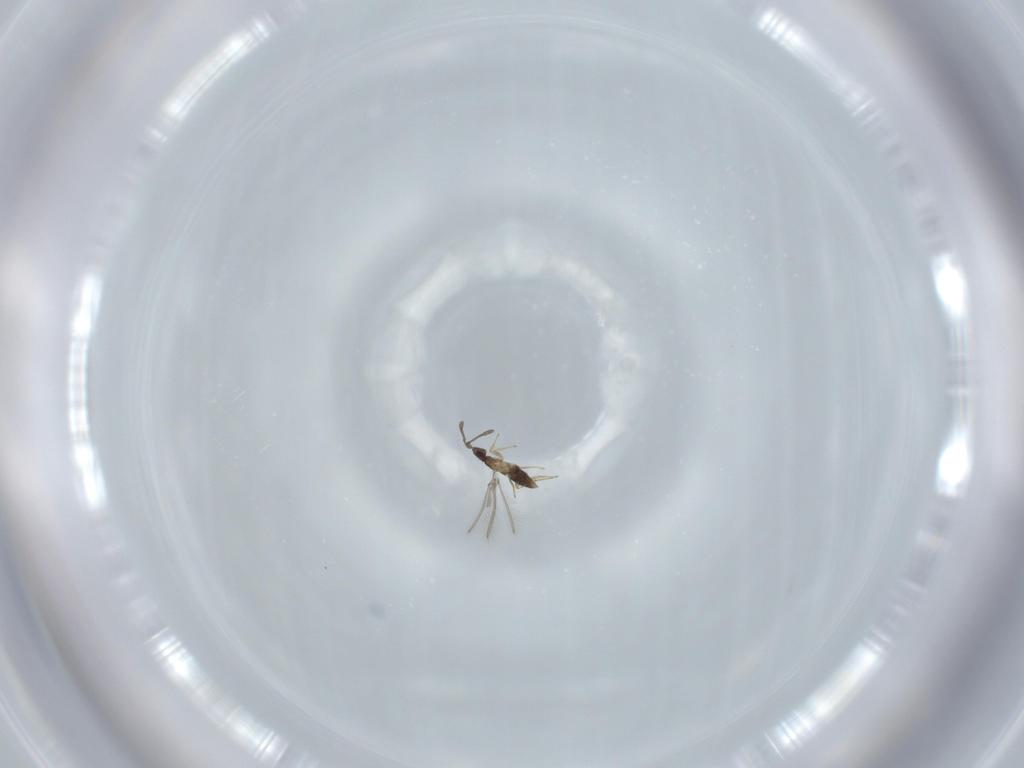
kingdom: Animalia
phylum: Arthropoda
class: Insecta
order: Hymenoptera
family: Mymaridae
